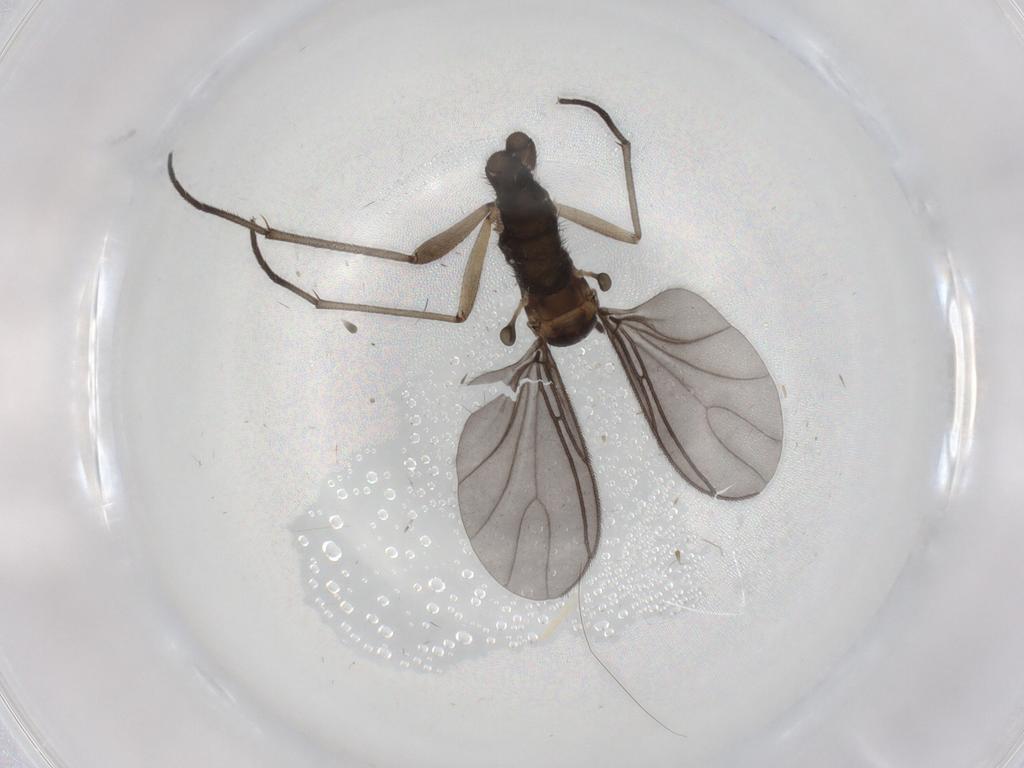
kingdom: Animalia
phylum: Arthropoda
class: Insecta
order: Diptera
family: Sciaridae
